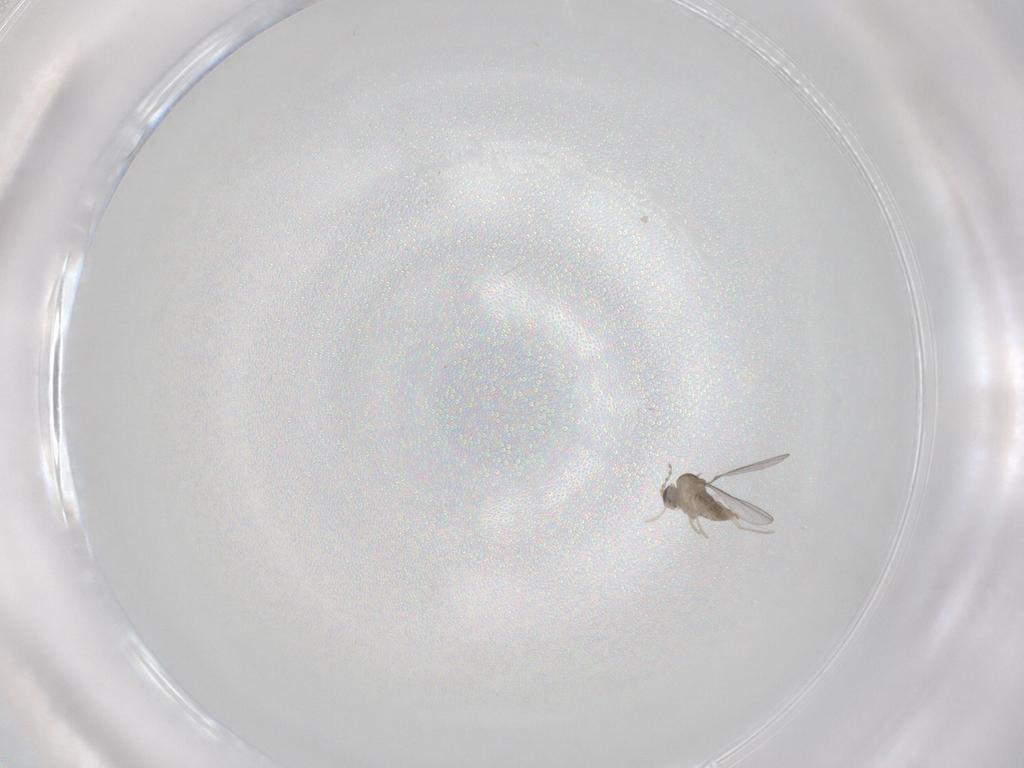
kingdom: Animalia
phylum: Arthropoda
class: Insecta
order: Diptera
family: Cecidomyiidae
